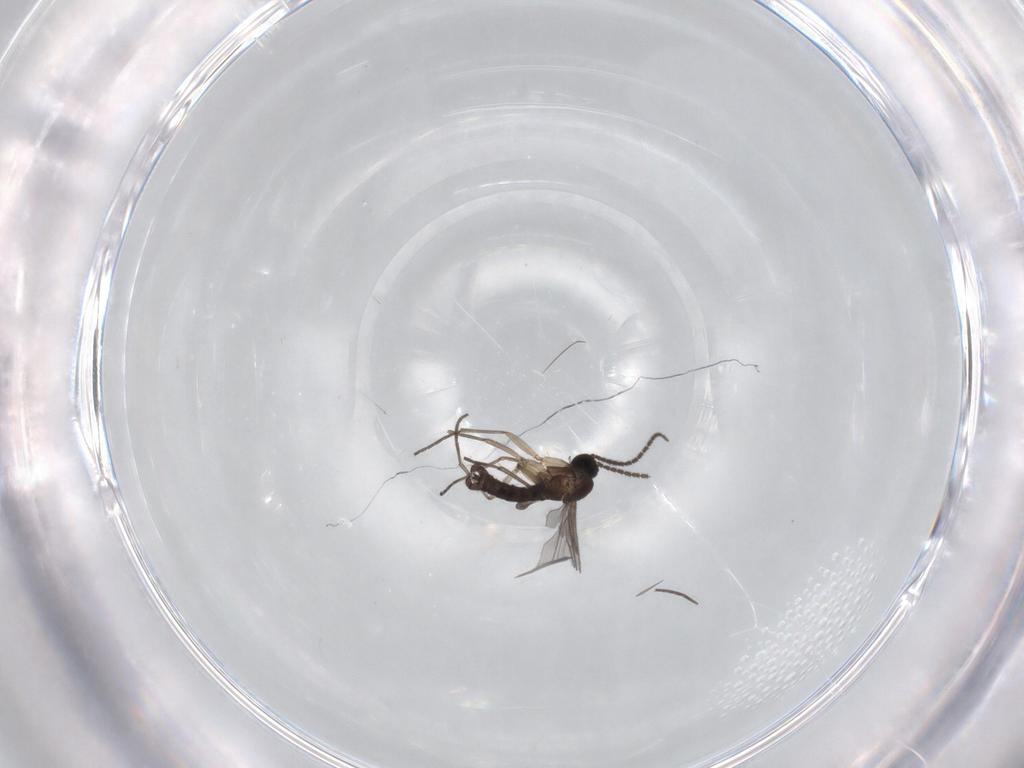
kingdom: Animalia
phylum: Arthropoda
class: Insecta
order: Diptera
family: Sciaridae
